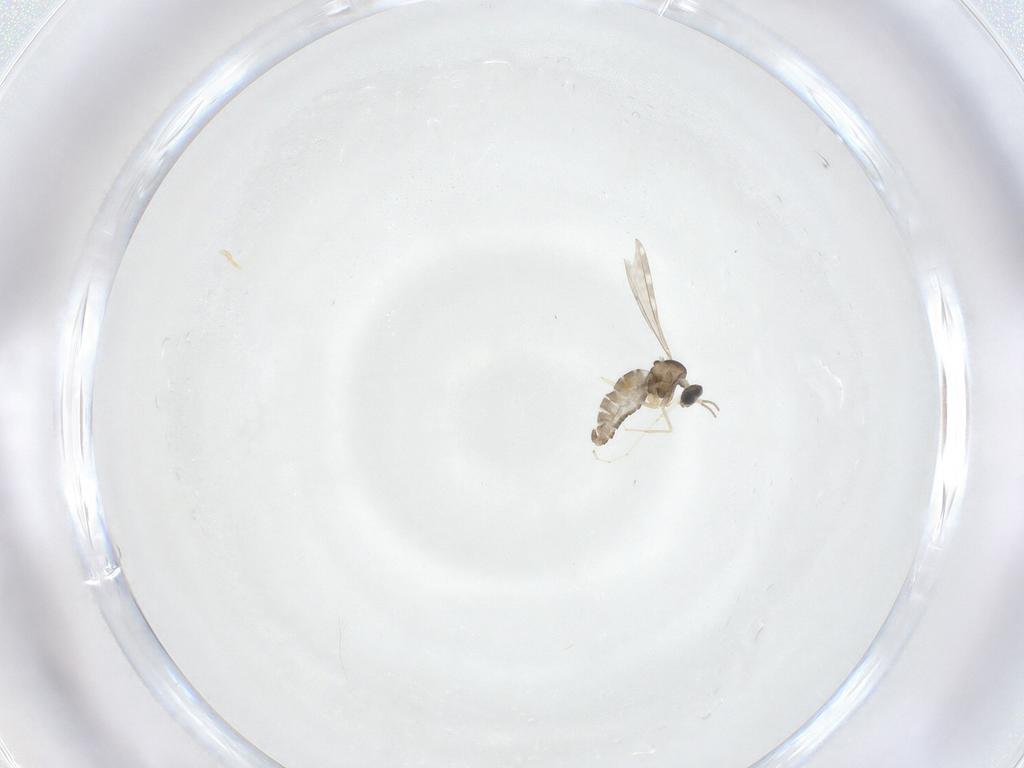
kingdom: Animalia
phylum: Arthropoda
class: Insecta
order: Diptera
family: Cecidomyiidae
